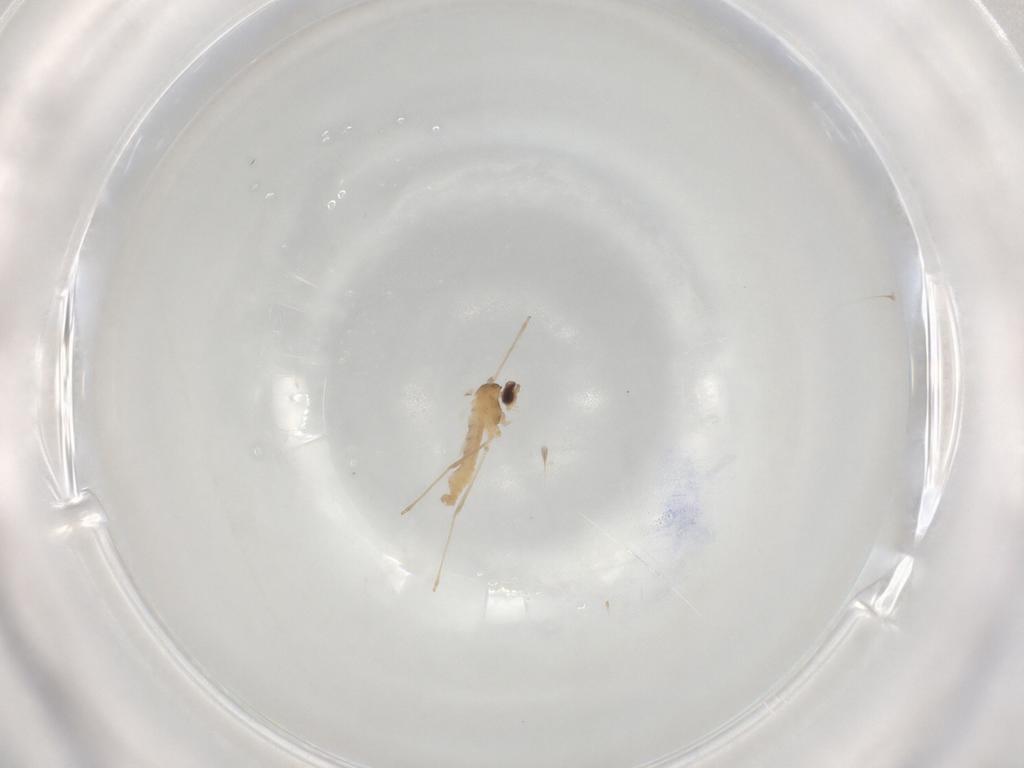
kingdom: Animalia
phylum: Arthropoda
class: Insecta
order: Diptera
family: Cecidomyiidae
